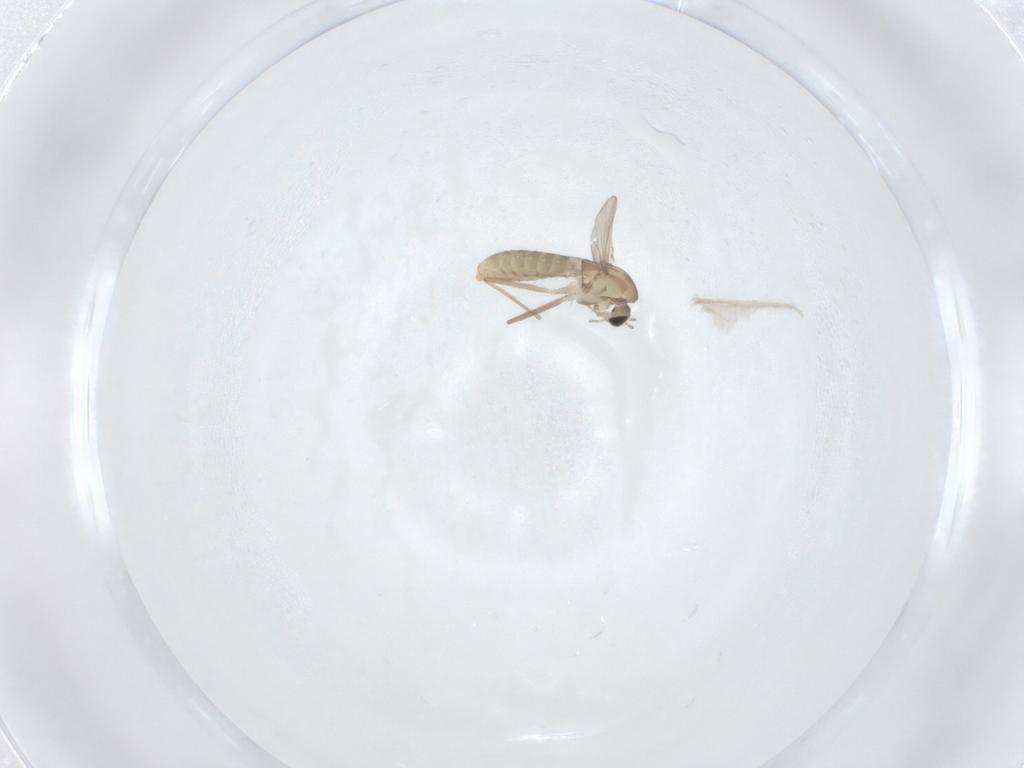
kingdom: Animalia
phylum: Arthropoda
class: Insecta
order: Diptera
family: Chironomidae
